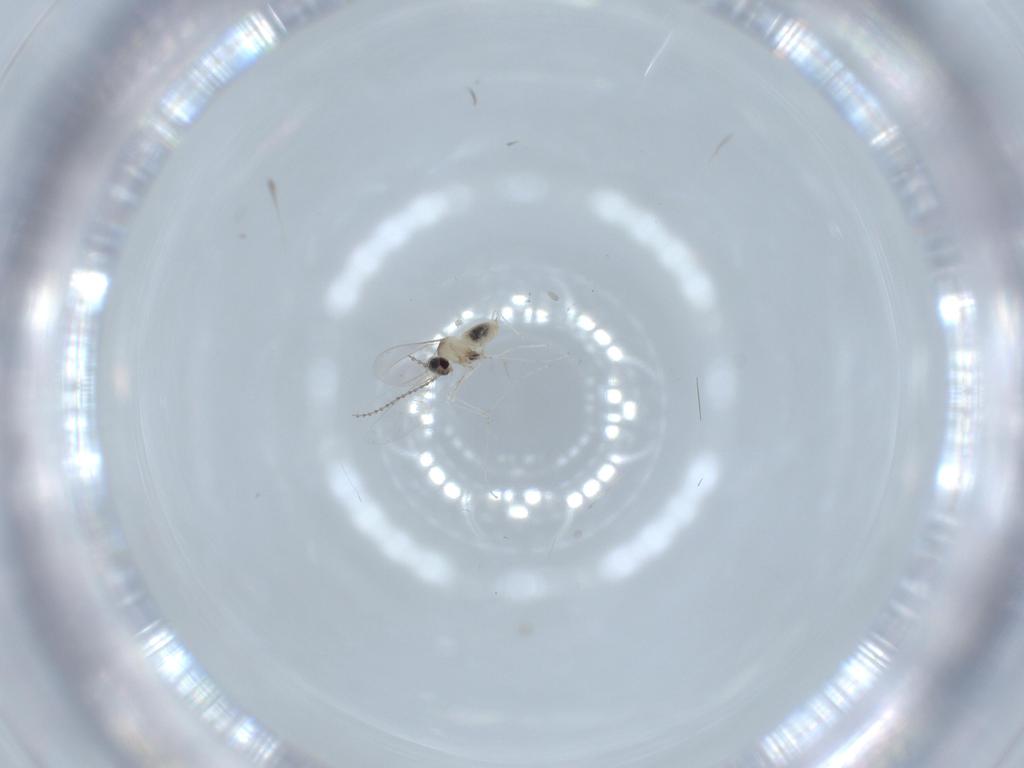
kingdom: Animalia
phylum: Arthropoda
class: Insecta
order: Diptera
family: Cecidomyiidae
